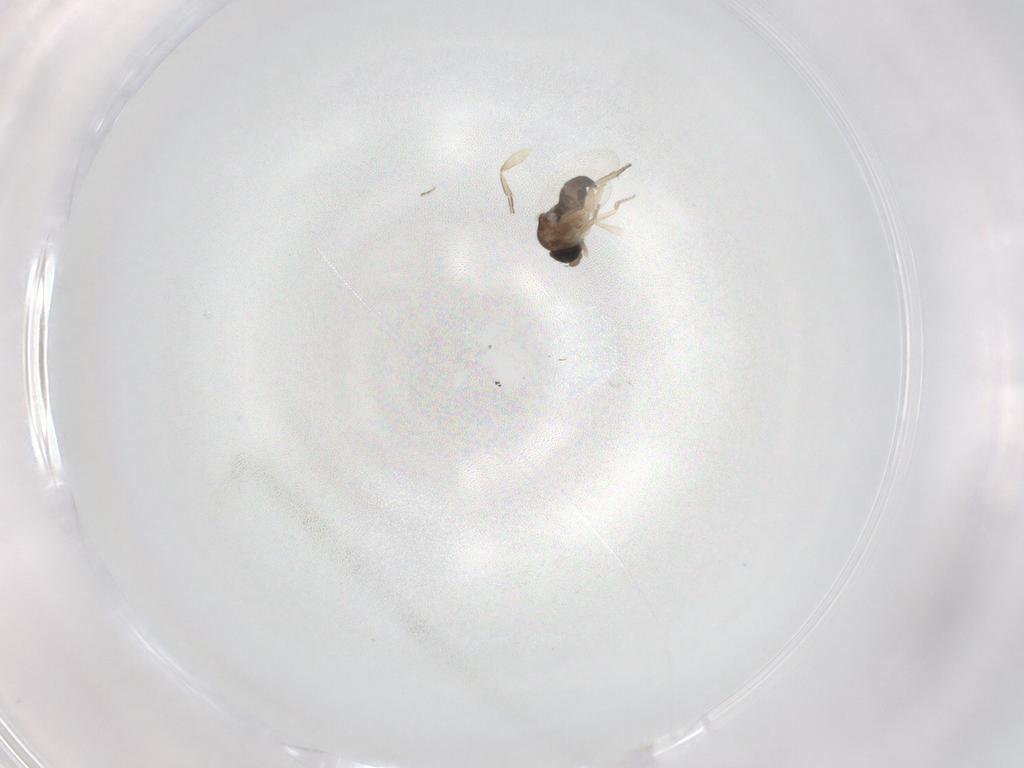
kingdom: Animalia
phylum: Arthropoda
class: Insecta
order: Diptera
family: Phoridae
